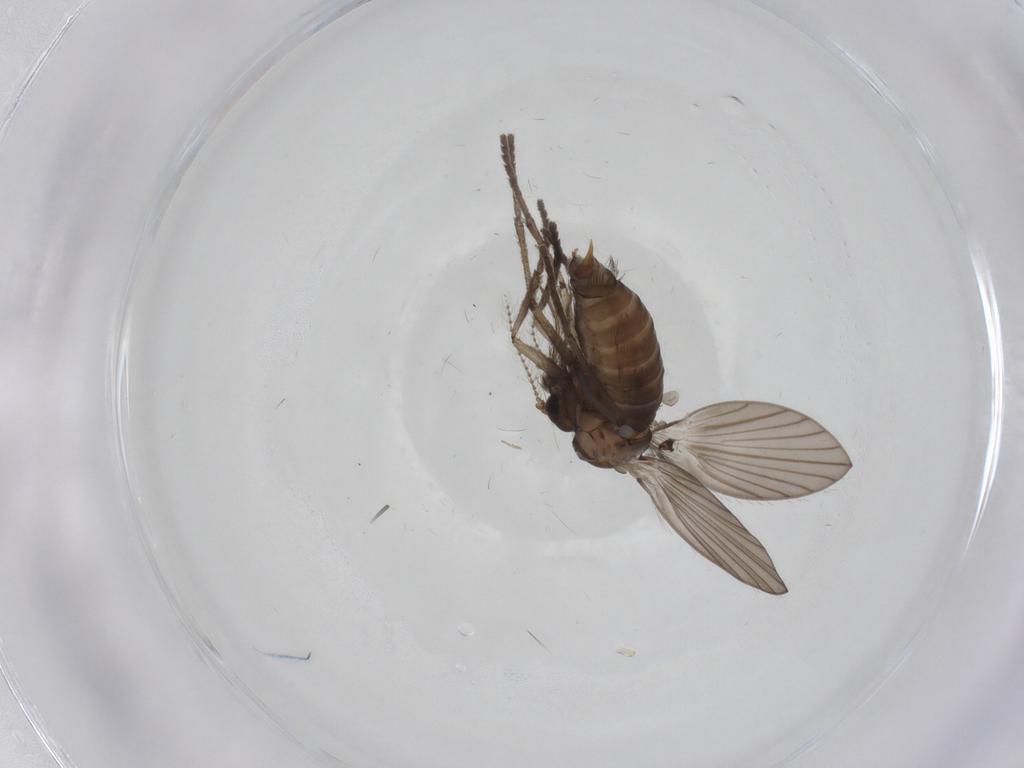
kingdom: Animalia
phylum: Arthropoda
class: Insecta
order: Diptera
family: Cecidomyiidae
